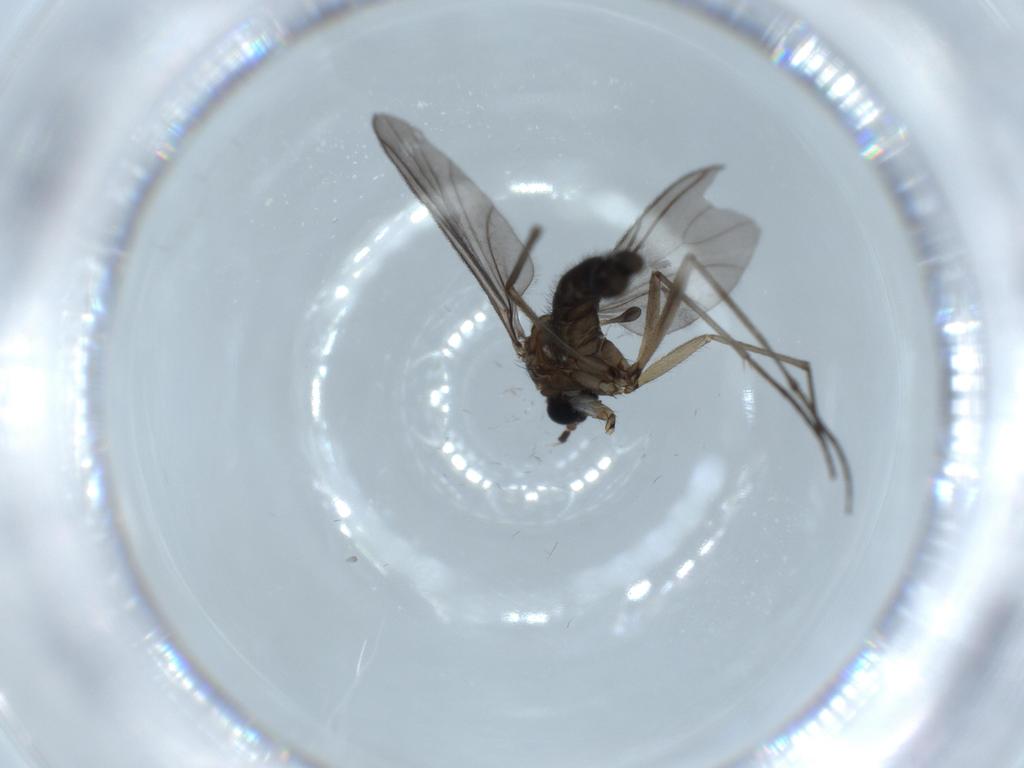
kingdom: Animalia
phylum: Arthropoda
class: Insecta
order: Diptera
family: Sciaridae
